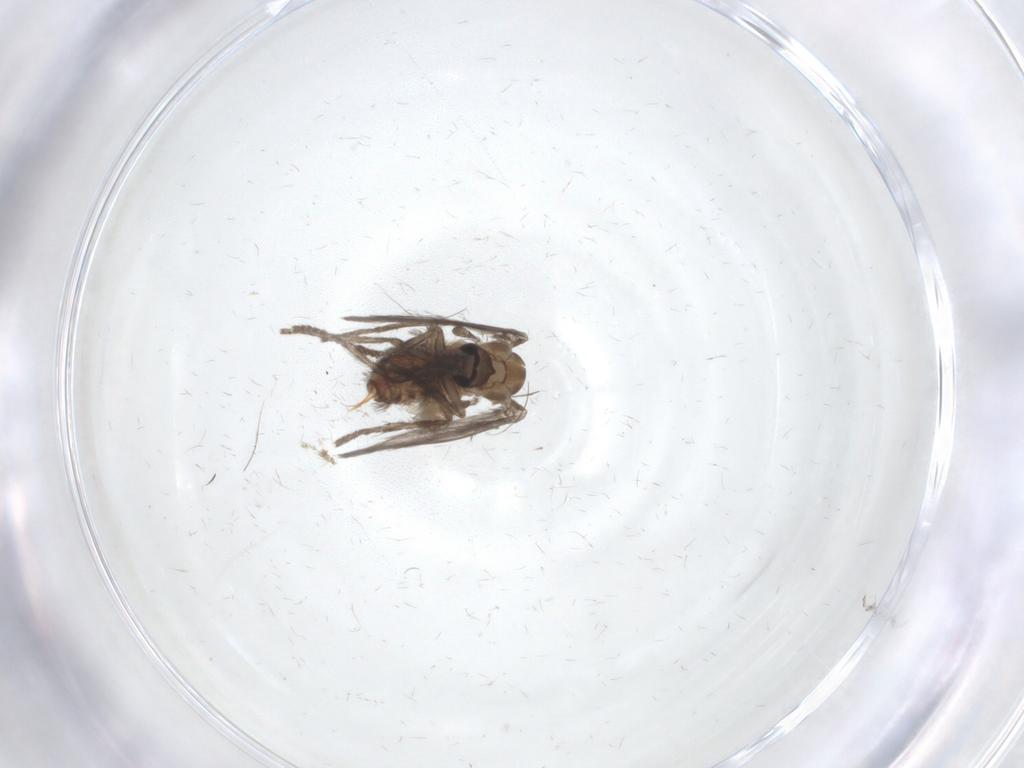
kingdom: Animalia
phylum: Arthropoda
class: Insecta
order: Diptera
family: Psychodidae
